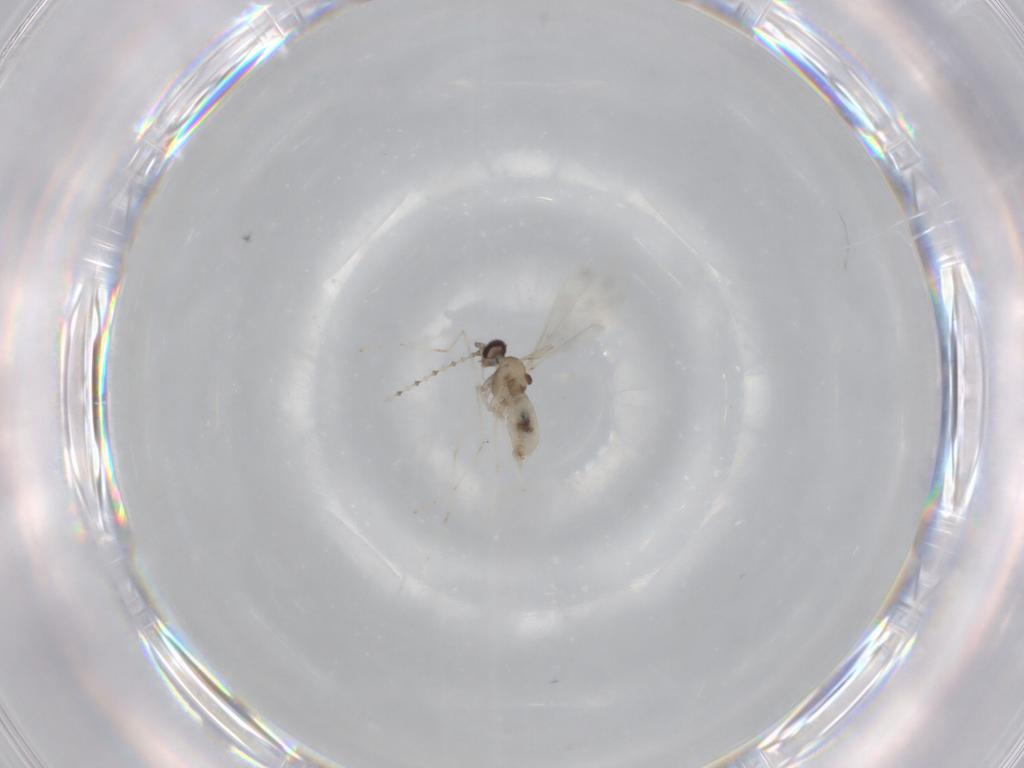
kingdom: Animalia
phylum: Arthropoda
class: Insecta
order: Diptera
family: Cecidomyiidae
